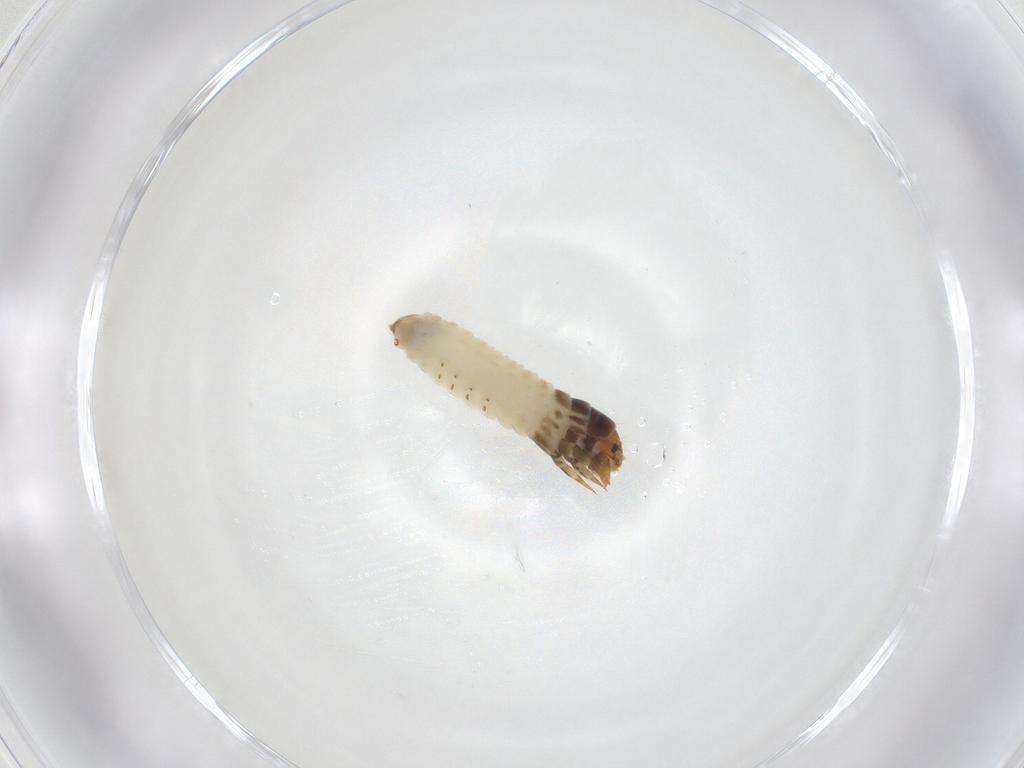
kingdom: Animalia
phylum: Arthropoda
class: Insecta
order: Lepidoptera
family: Psychidae
